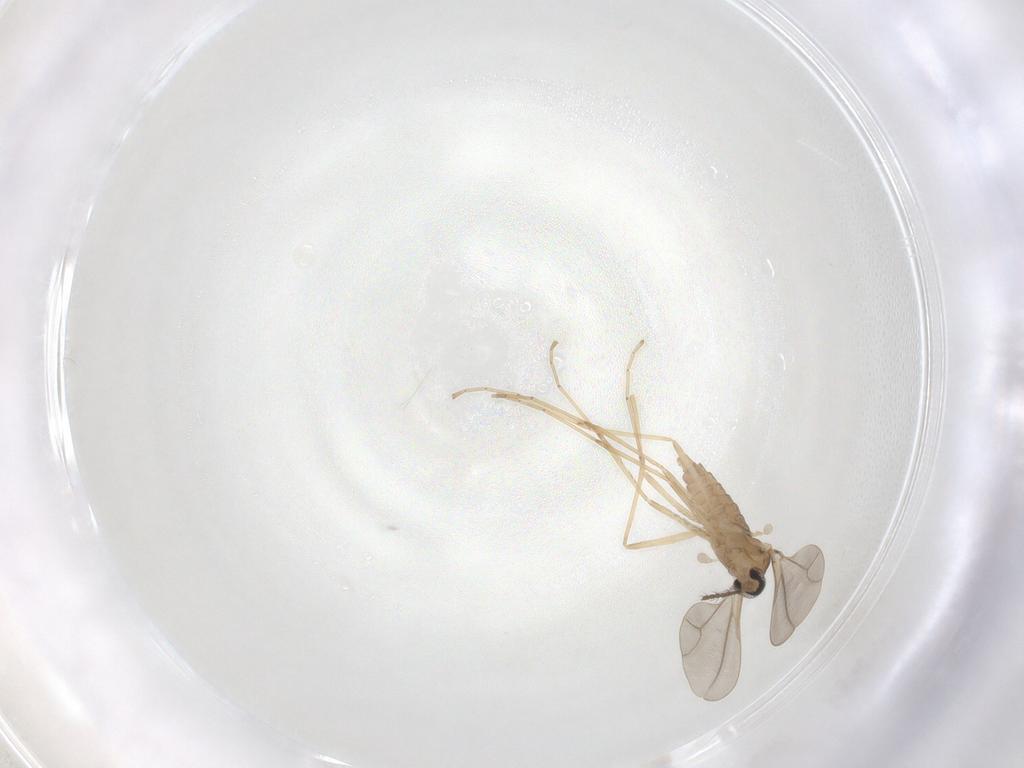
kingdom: Animalia
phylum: Arthropoda
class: Insecta
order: Diptera
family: Cecidomyiidae
